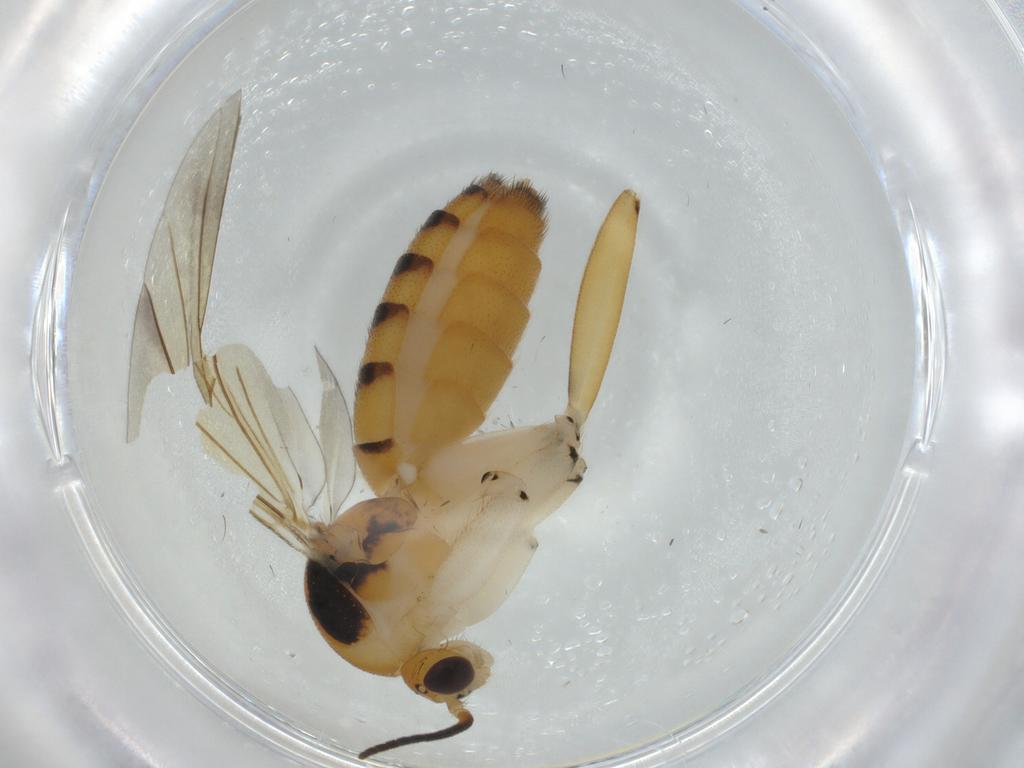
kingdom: Animalia
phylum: Arthropoda
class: Insecta
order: Diptera
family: Mycetophilidae
